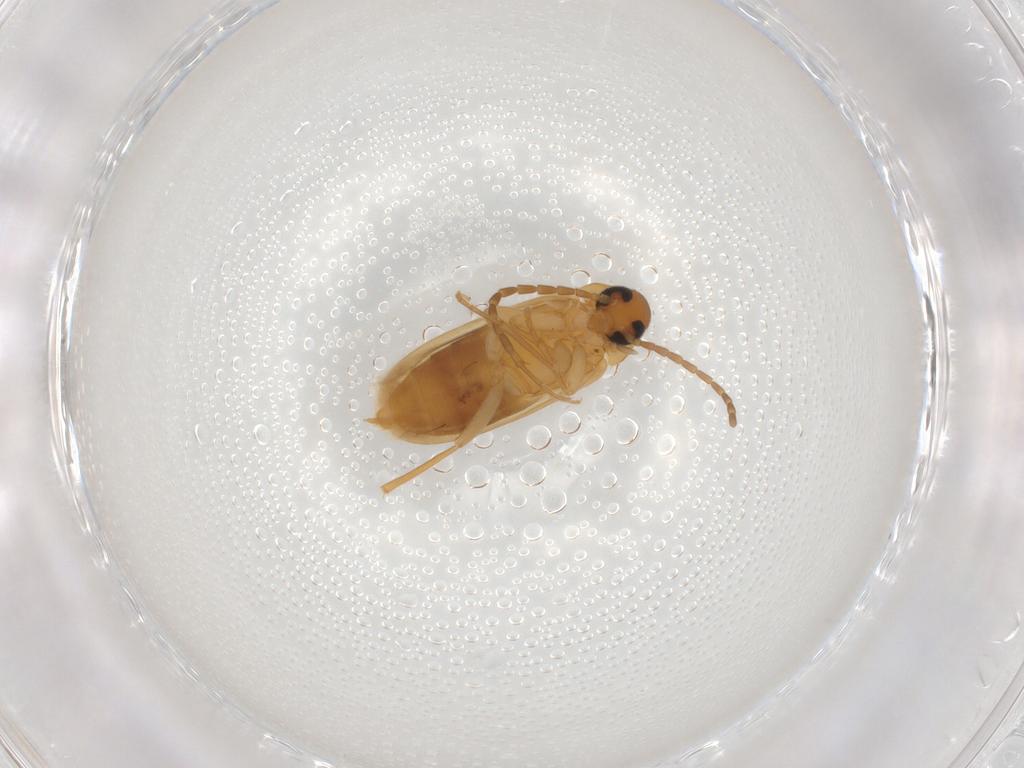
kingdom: Animalia
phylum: Arthropoda
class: Insecta
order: Coleoptera
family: Scraptiidae
